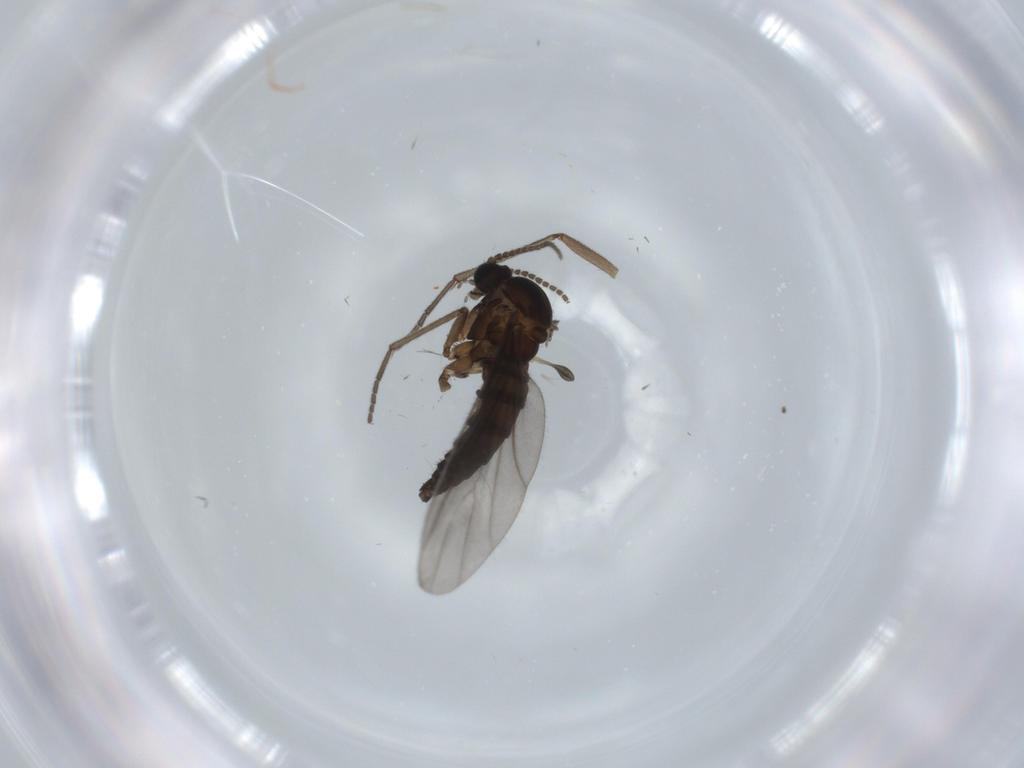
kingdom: Animalia
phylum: Arthropoda
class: Insecta
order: Diptera
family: Sciaridae
